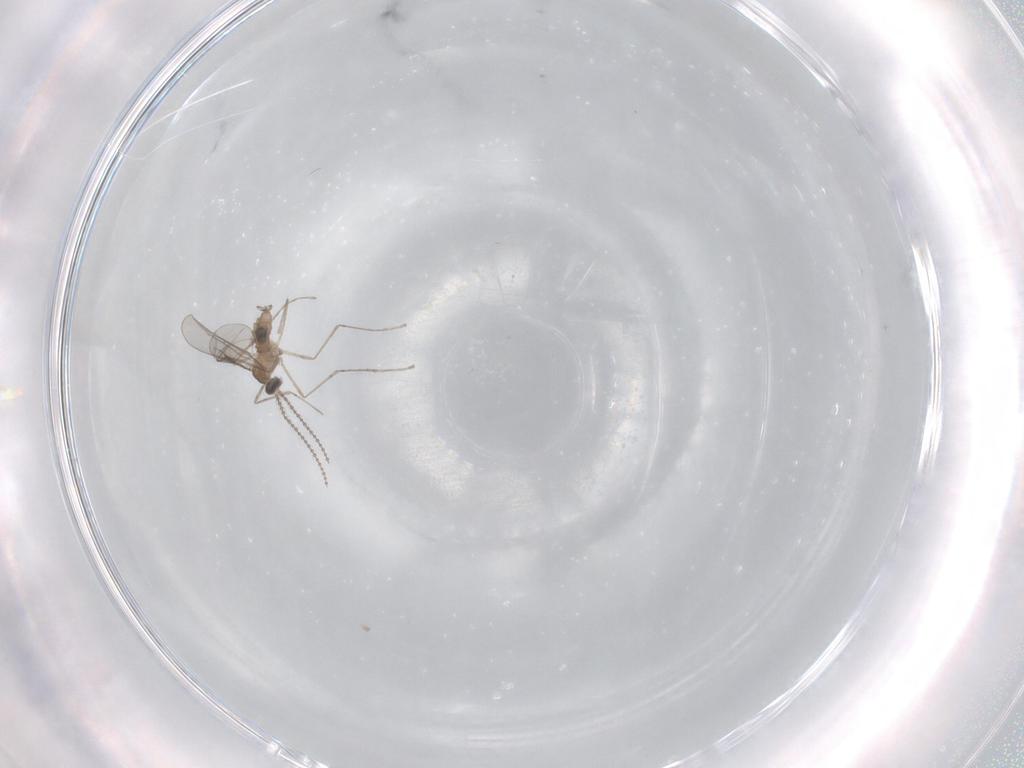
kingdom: Animalia
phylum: Arthropoda
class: Insecta
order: Diptera
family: Cecidomyiidae
